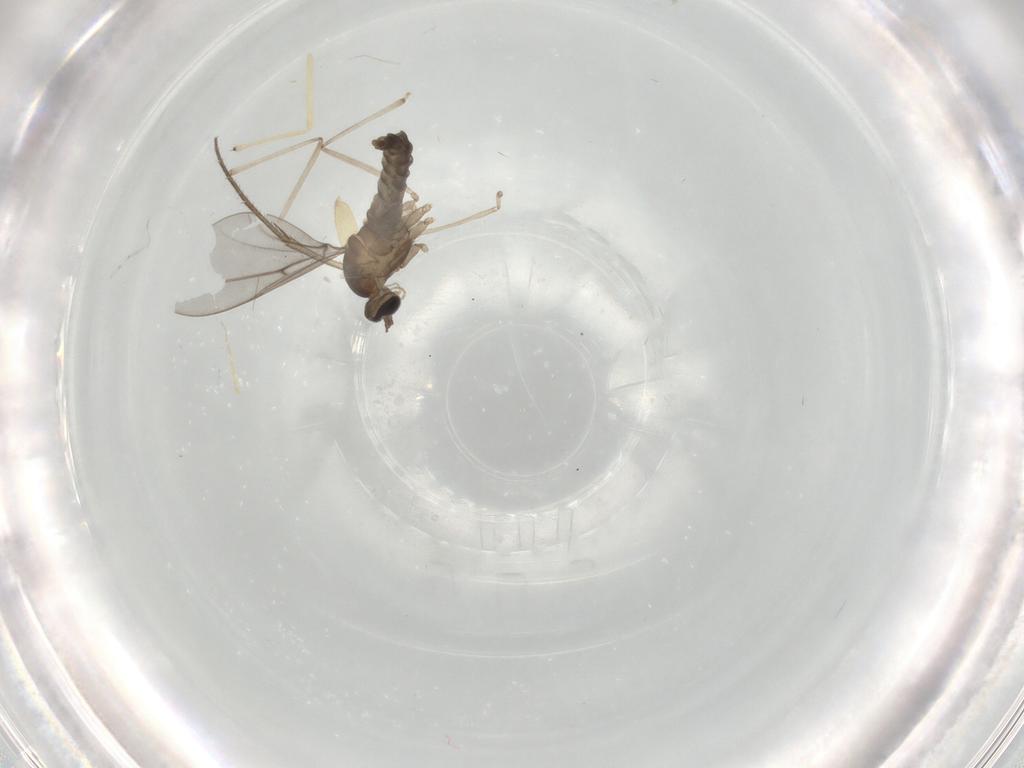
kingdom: Animalia
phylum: Arthropoda
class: Insecta
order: Diptera
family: Mycetophilidae
